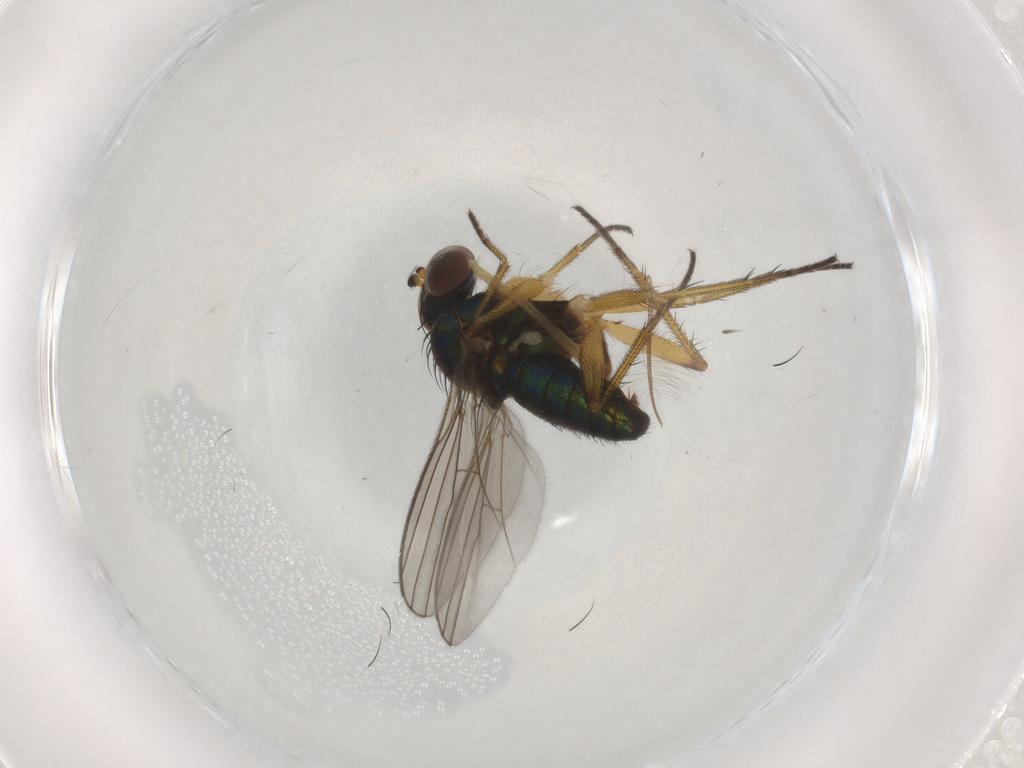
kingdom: Animalia
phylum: Arthropoda
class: Insecta
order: Diptera
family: Dolichopodidae
